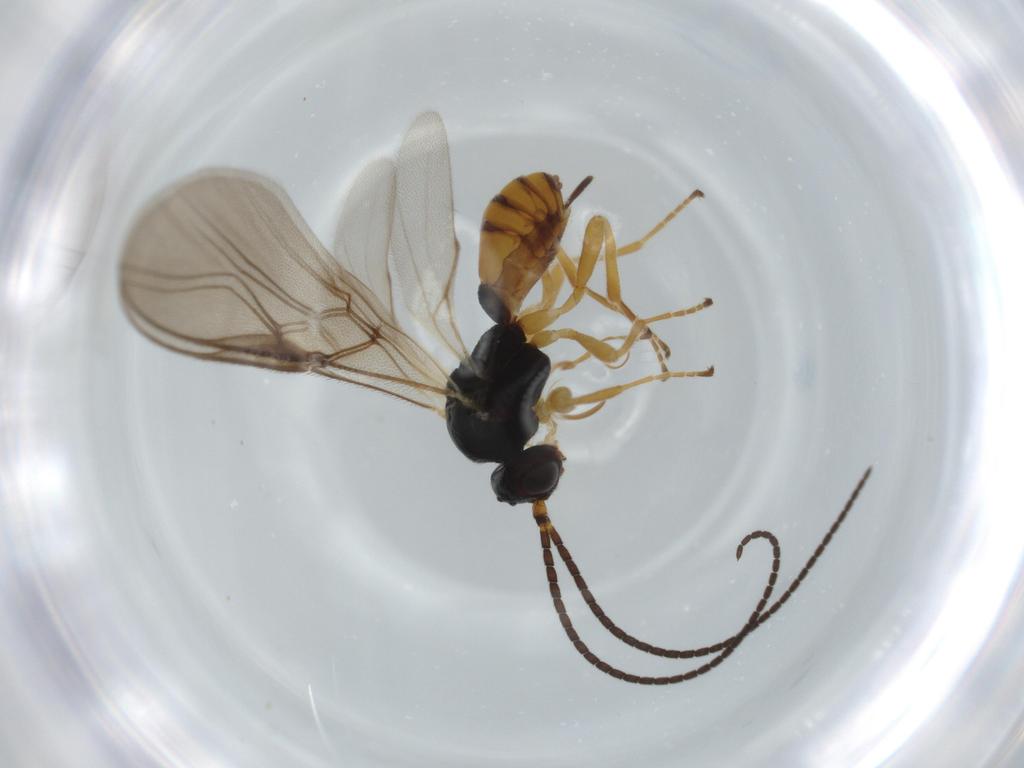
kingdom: Animalia
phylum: Arthropoda
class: Insecta
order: Hymenoptera
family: Braconidae
